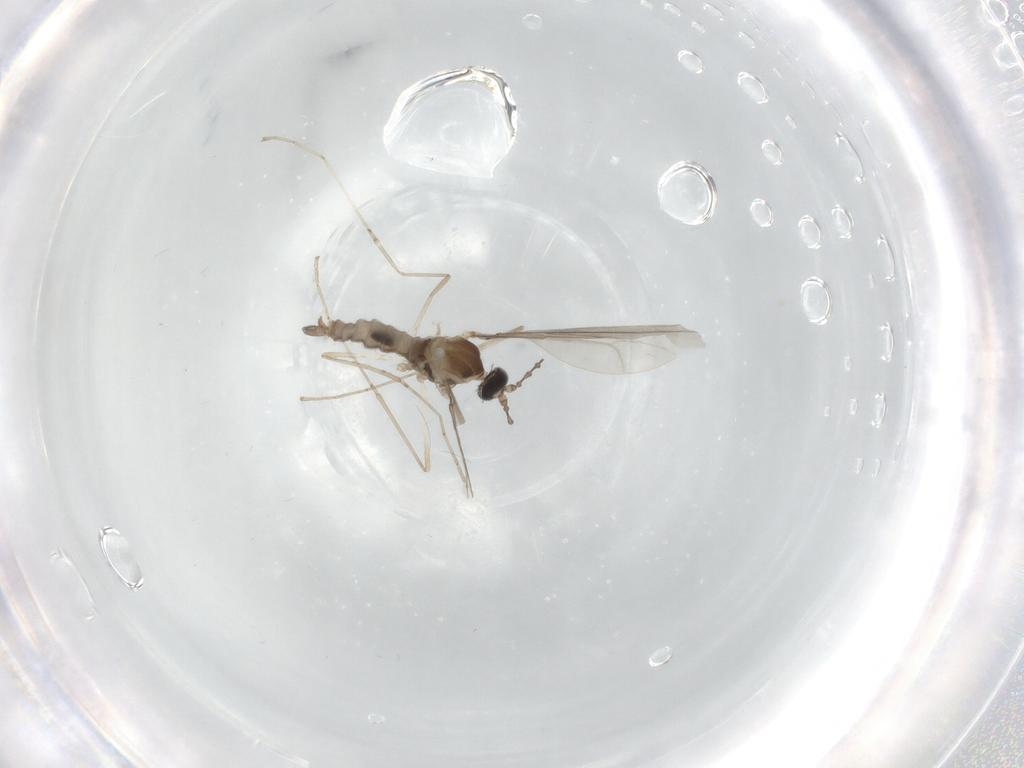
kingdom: Animalia
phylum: Arthropoda
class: Insecta
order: Diptera
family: Cecidomyiidae
